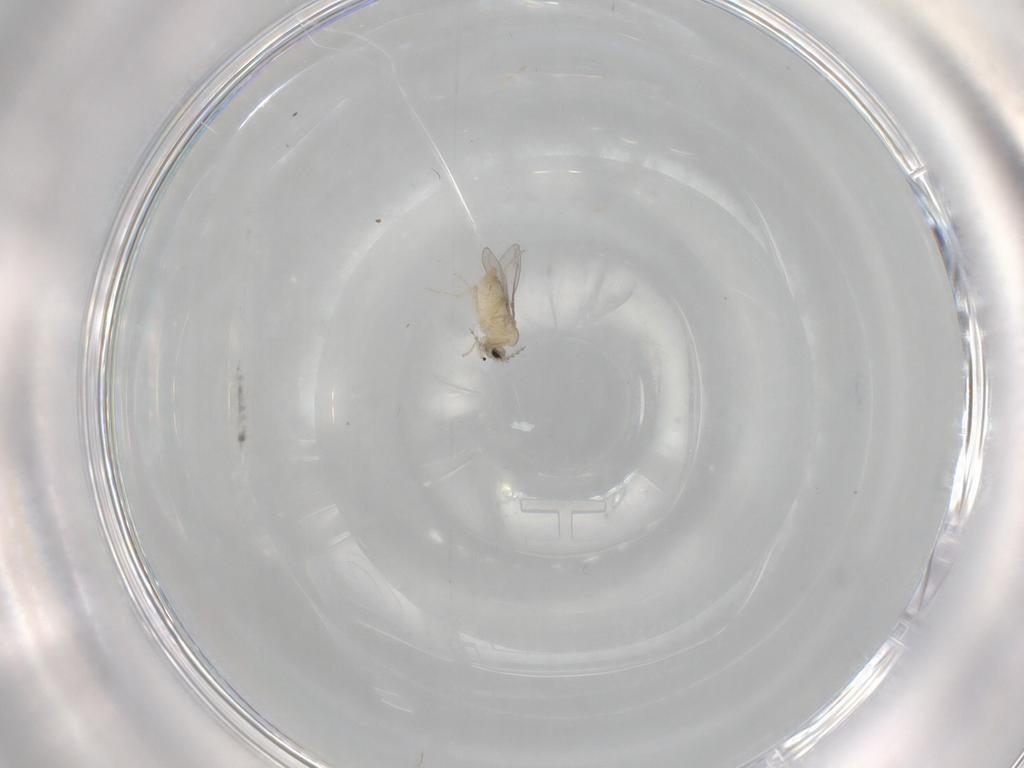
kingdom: Animalia
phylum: Arthropoda
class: Insecta
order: Diptera
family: Cecidomyiidae
